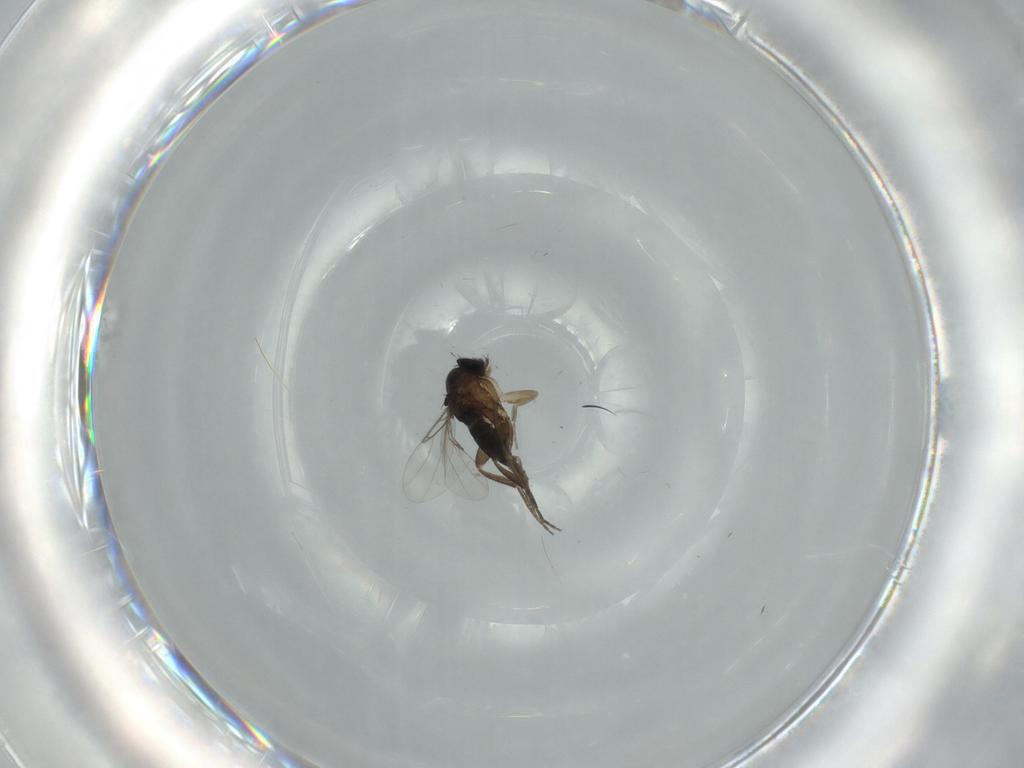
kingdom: Animalia
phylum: Arthropoda
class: Insecta
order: Diptera
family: Phoridae
